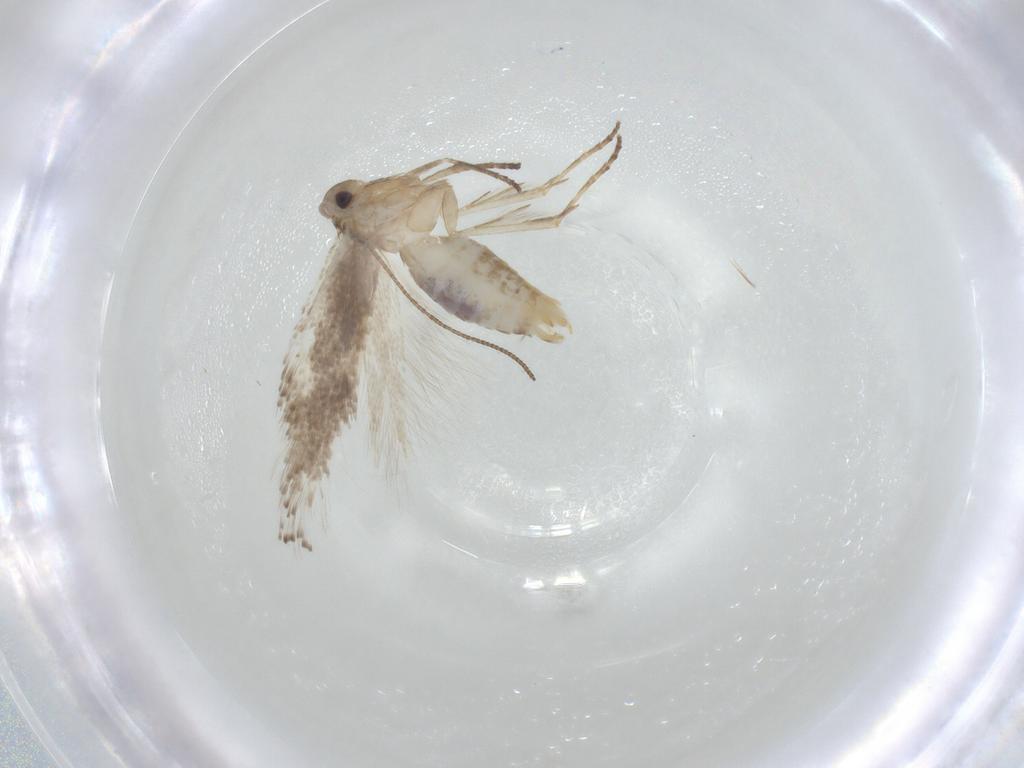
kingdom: Animalia
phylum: Arthropoda
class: Insecta
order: Lepidoptera
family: Bucculatricidae
